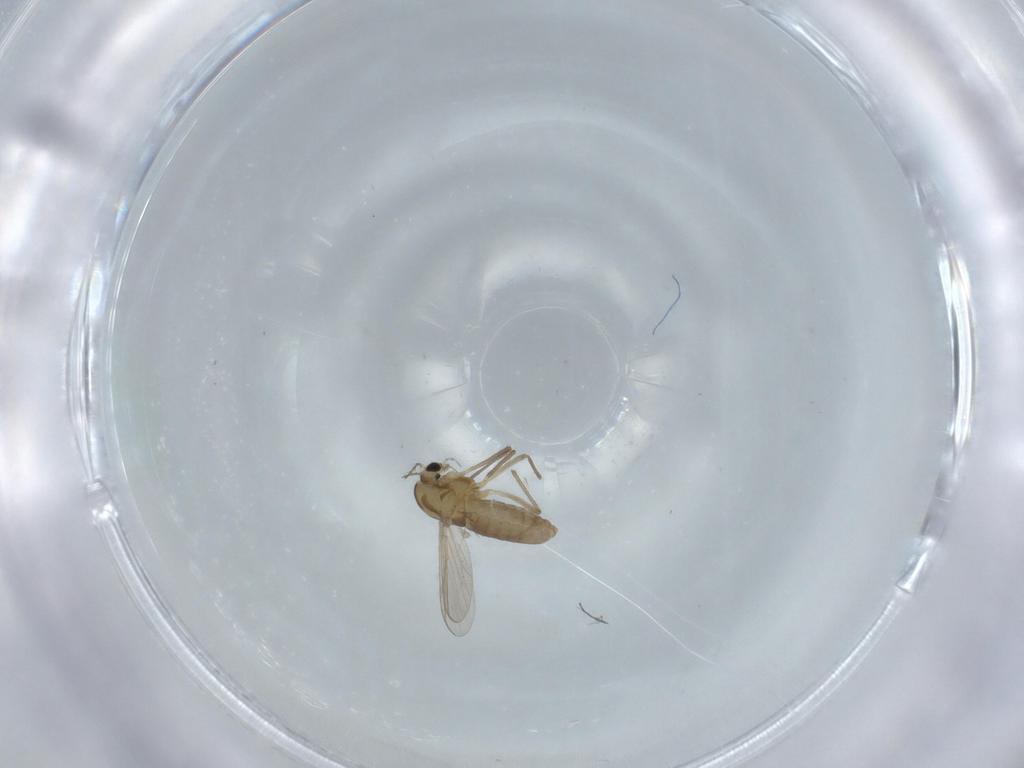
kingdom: Animalia
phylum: Arthropoda
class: Insecta
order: Diptera
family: Chironomidae
